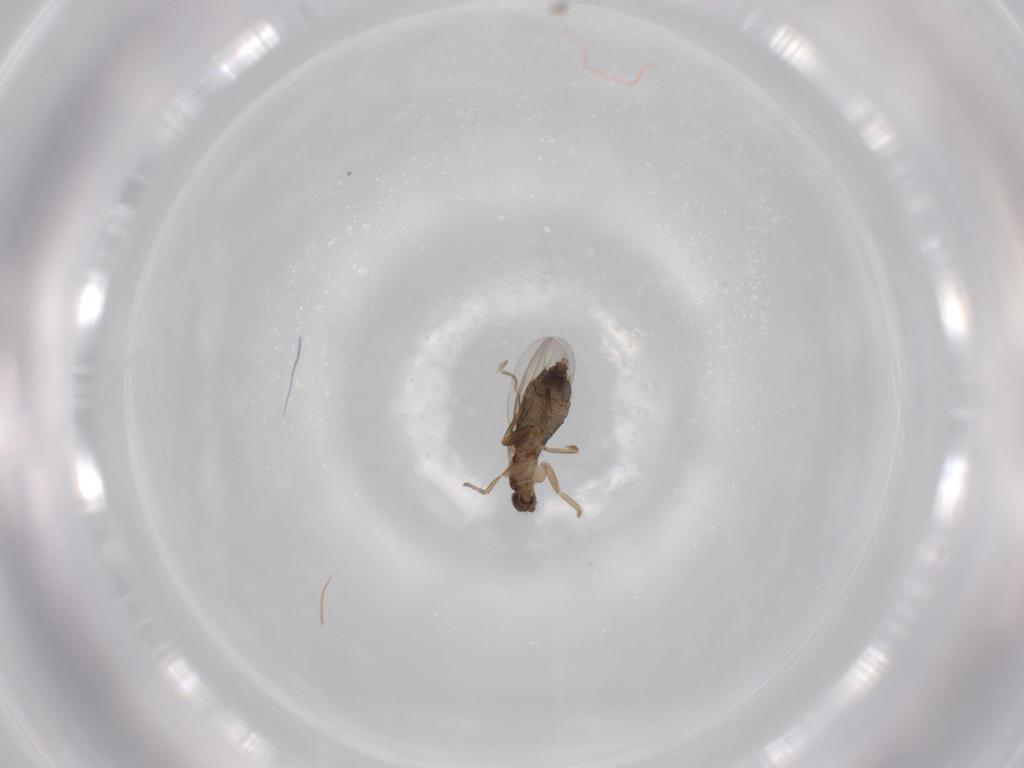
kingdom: Animalia
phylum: Arthropoda
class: Insecta
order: Diptera
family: Phoridae
